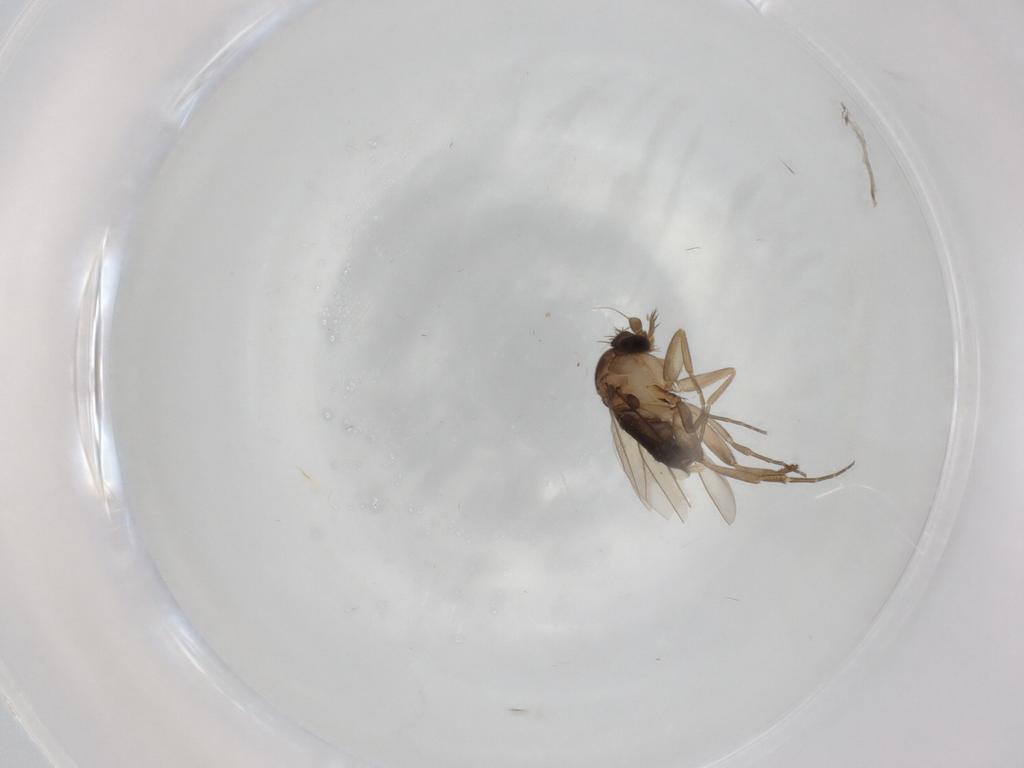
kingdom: Animalia
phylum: Arthropoda
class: Insecta
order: Diptera
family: Phoridae
